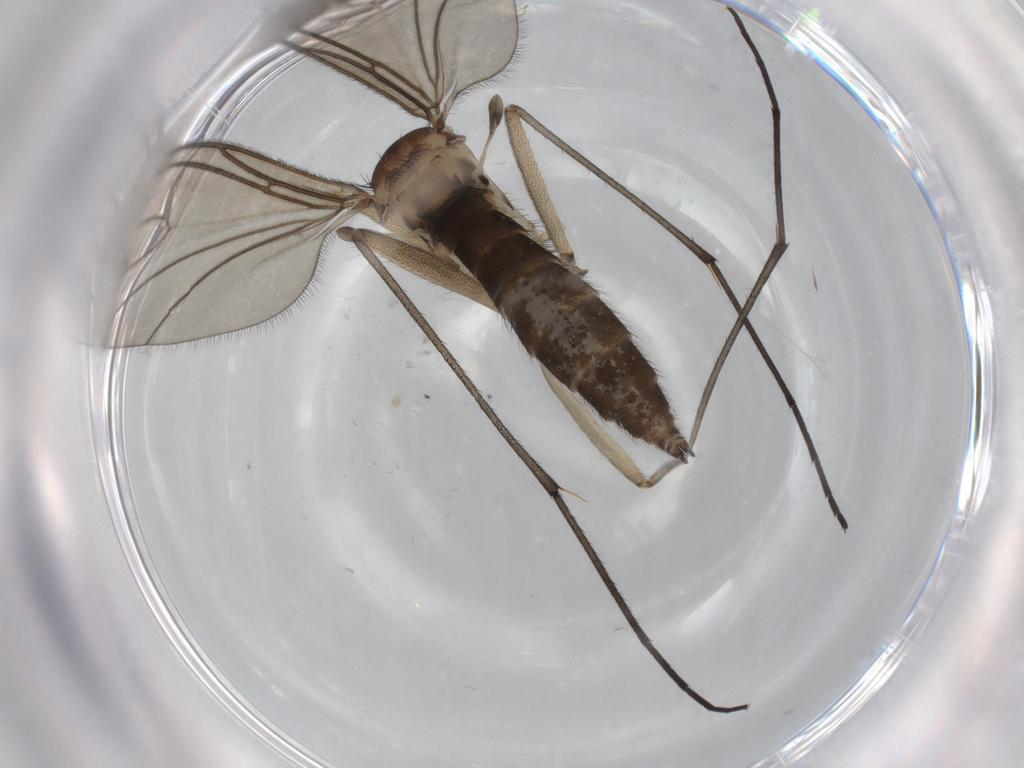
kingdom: Animalia
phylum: Arthropoda
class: Insecta
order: Diptera
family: Sciaridae
